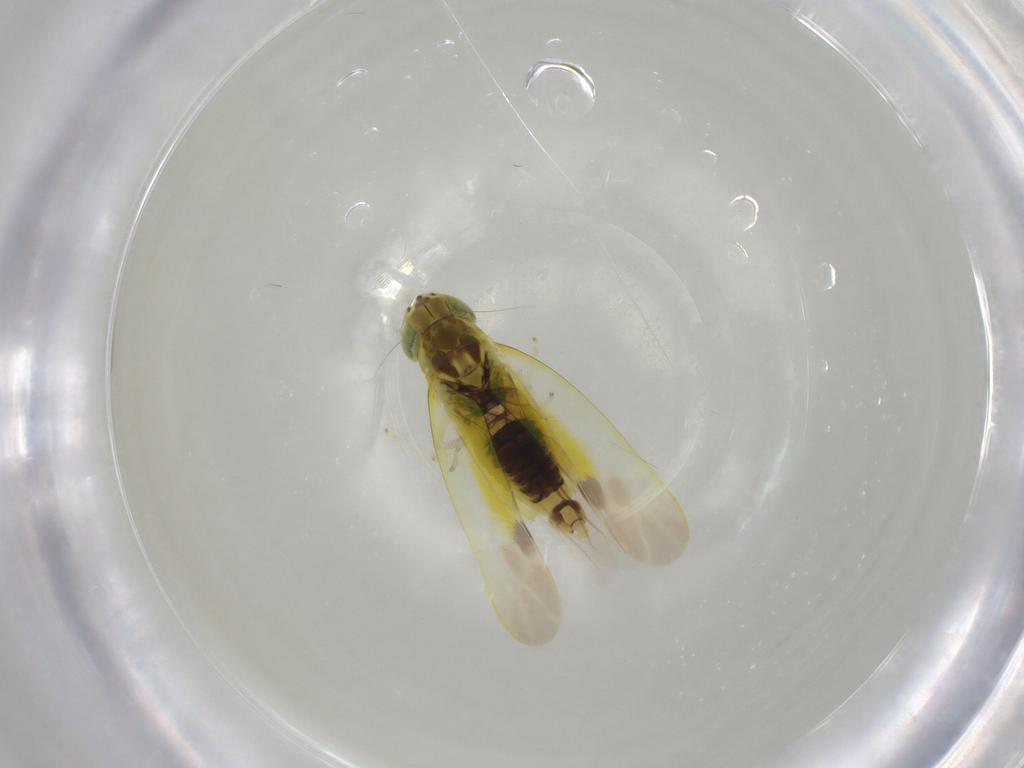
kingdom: Animalia
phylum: Arthropoda
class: Insecta
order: Hemiptera
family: Cicadellidae
